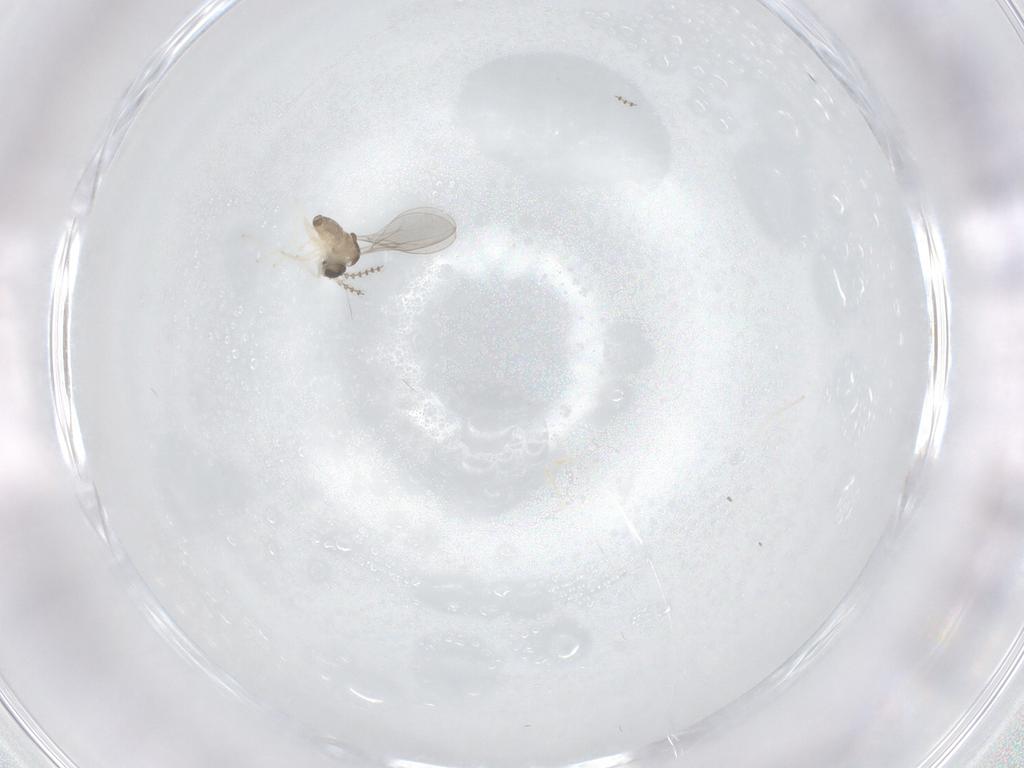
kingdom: Animalia
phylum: Arthropoda
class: Insecta
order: Diptera
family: Cecidomyiidae
